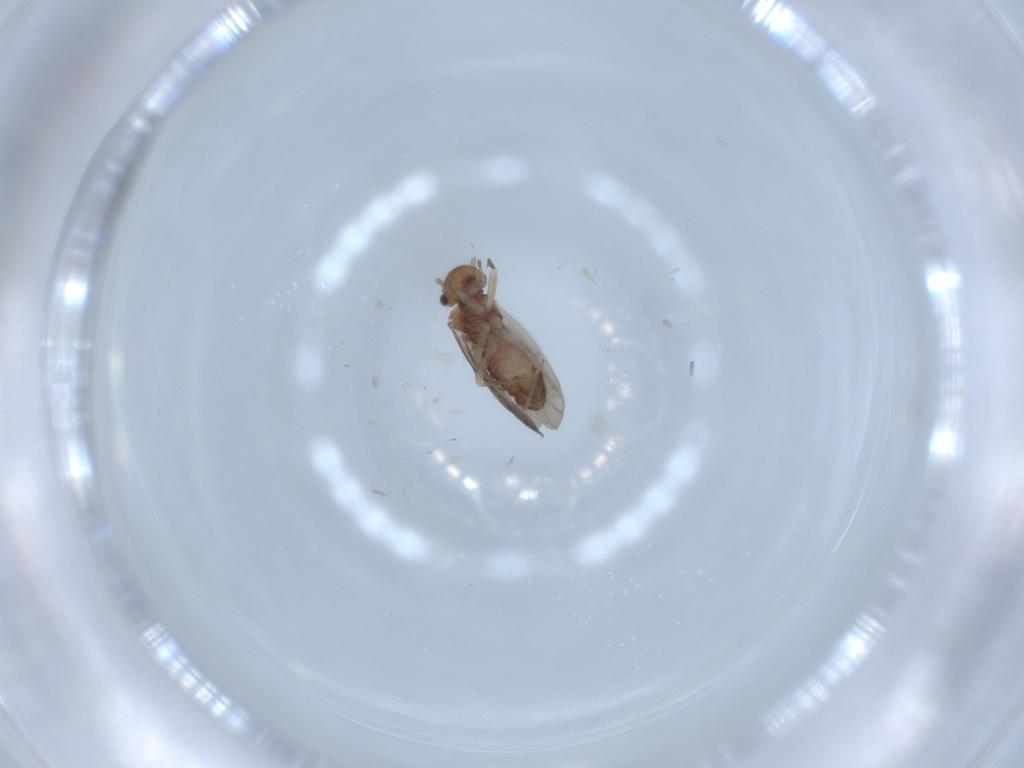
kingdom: Animalia
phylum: Arthropoda
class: Insecta
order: Psocodea
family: Ectopsocidae
